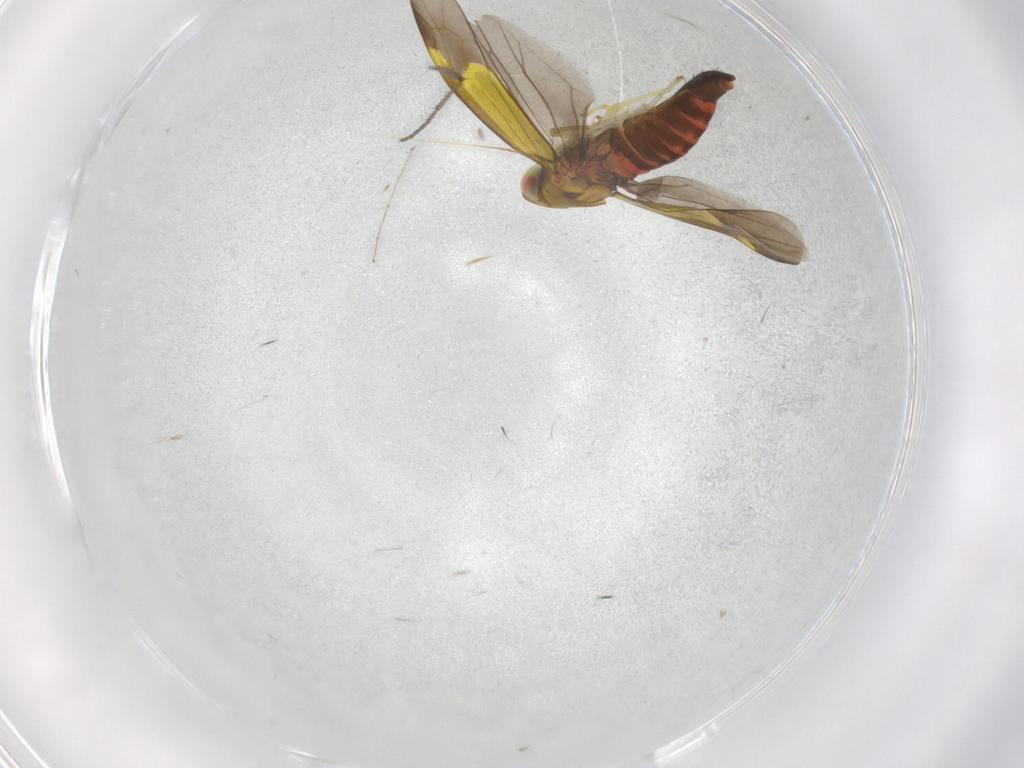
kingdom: Animalia
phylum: Arthropoda
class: Insecta
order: Hemiptera
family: Cicadellidae
